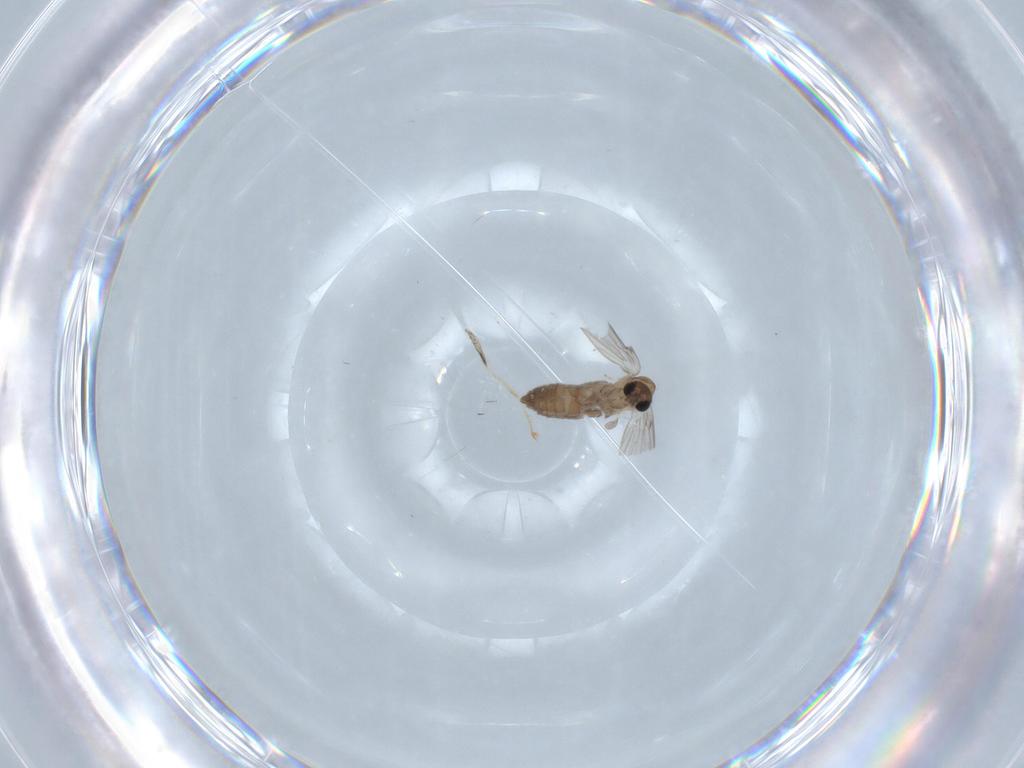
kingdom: Animalia
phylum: Arthropoda
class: Insecta
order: Diptera
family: Psychodidae
